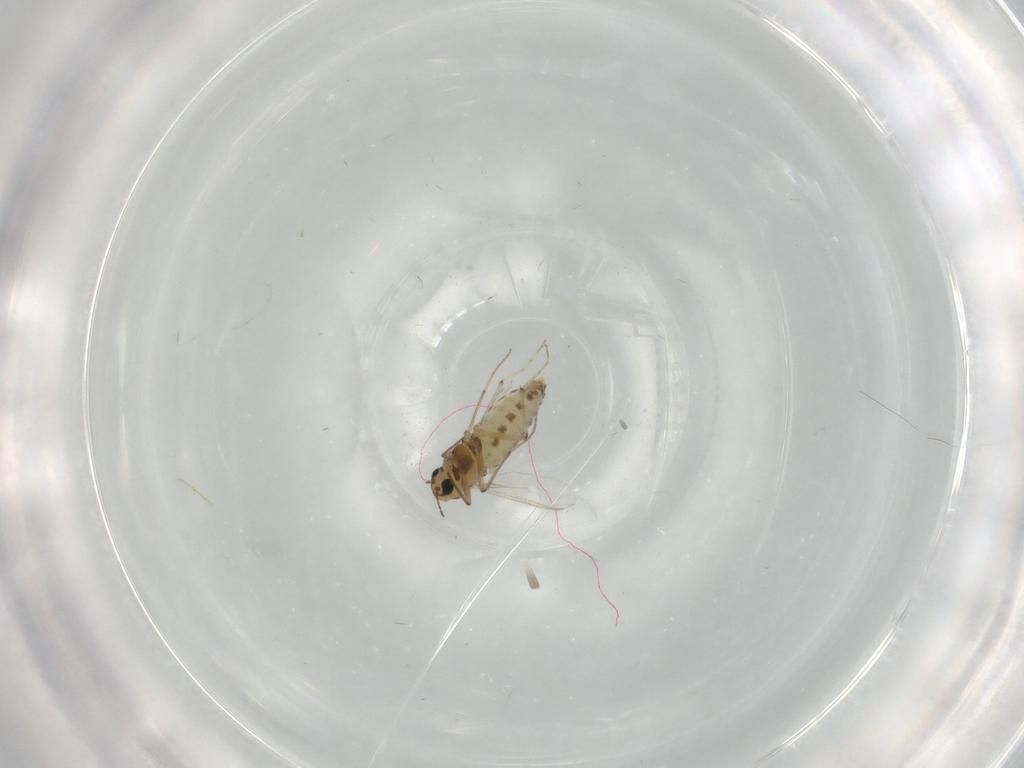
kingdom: Animalia
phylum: Arthropoda
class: Insecta
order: Diptera
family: Chironomidae
